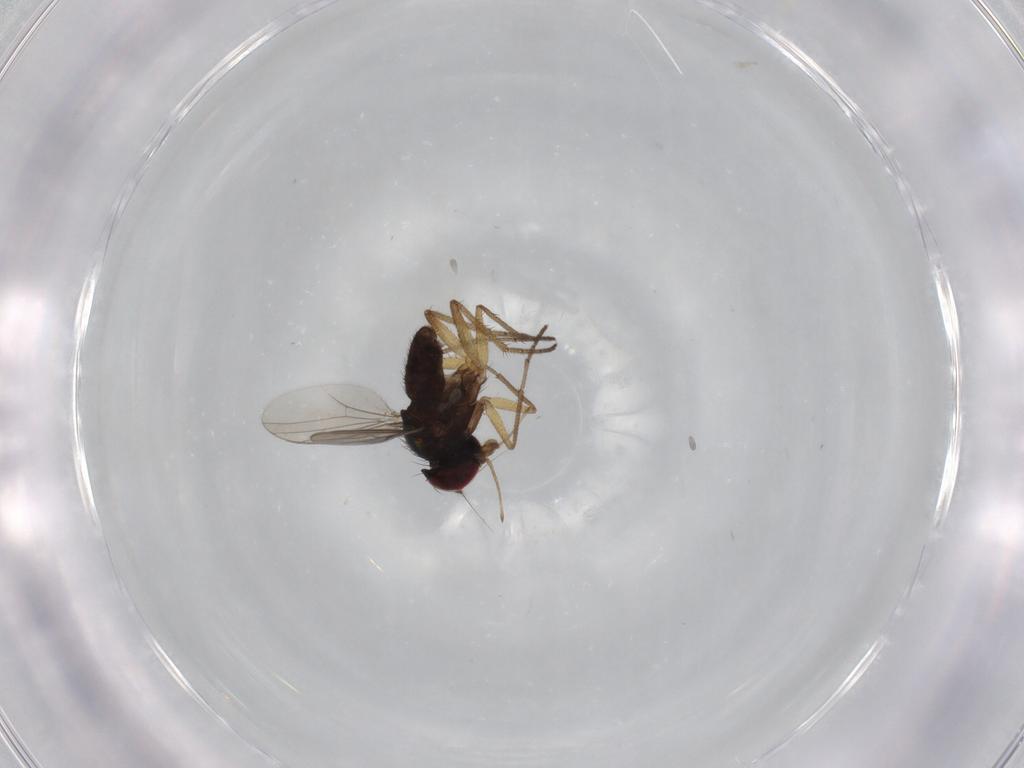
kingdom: Animalia
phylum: Arthropoda
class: Insecta
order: Diptera
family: Dolichopodidae
